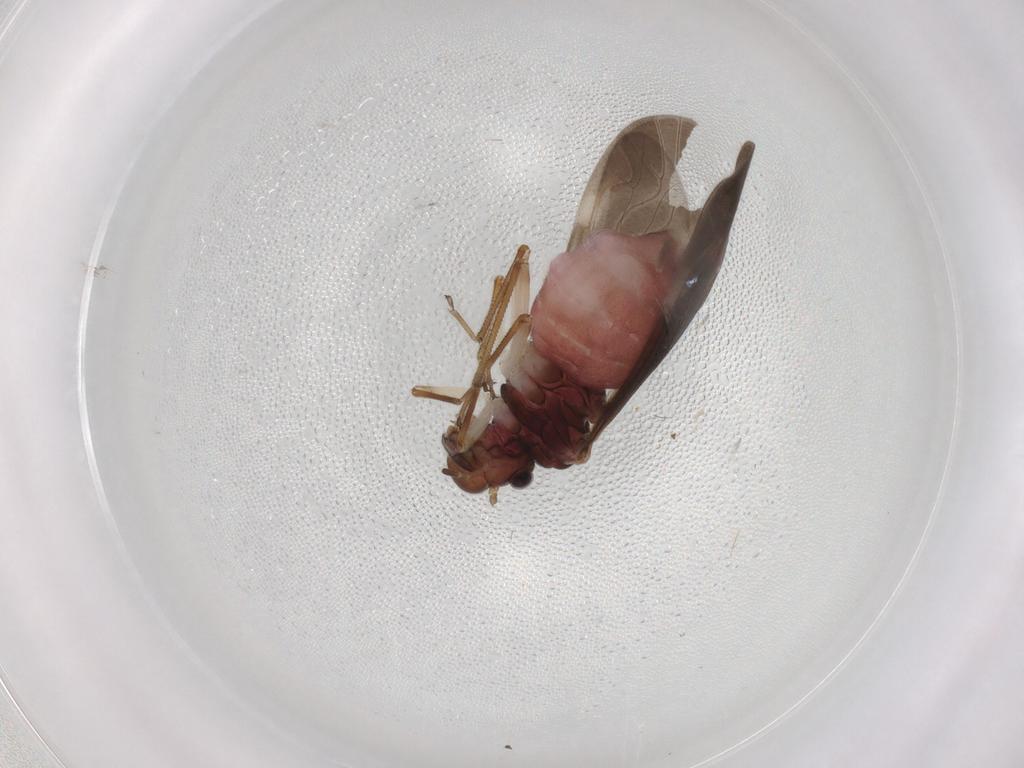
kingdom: Animalia
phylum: Arthropoda
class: Insecta
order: Psocodea
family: Caeciliusidae
